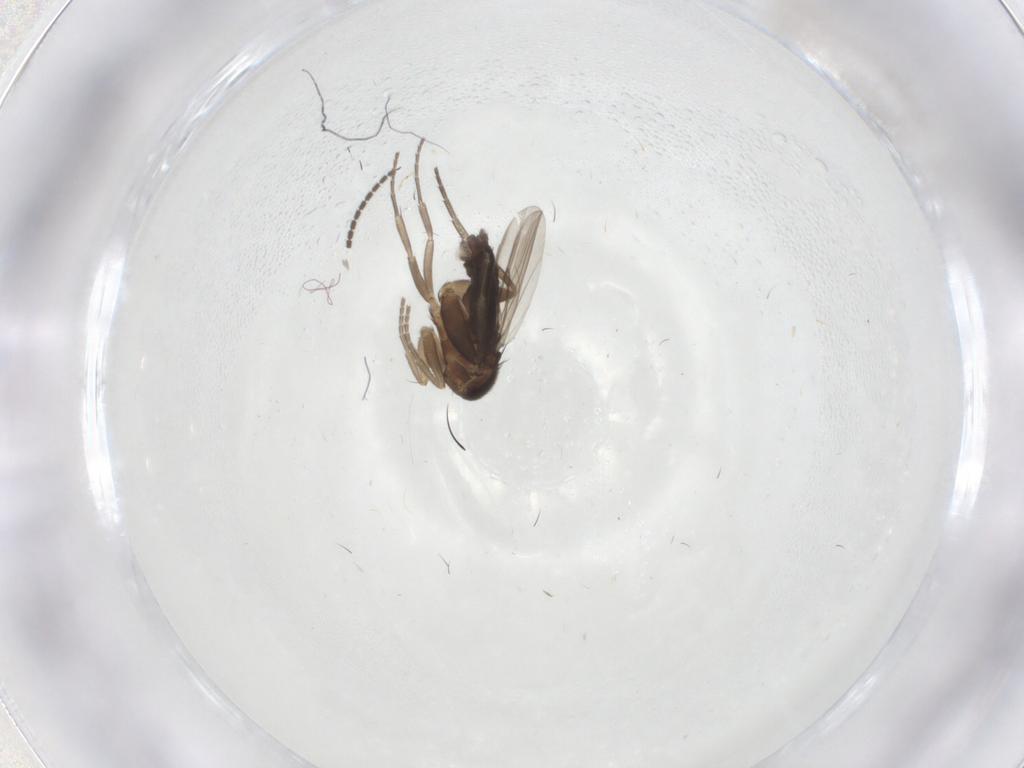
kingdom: Animalia
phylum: Arthropoda
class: Insecta
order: Diptera
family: Phoridae
